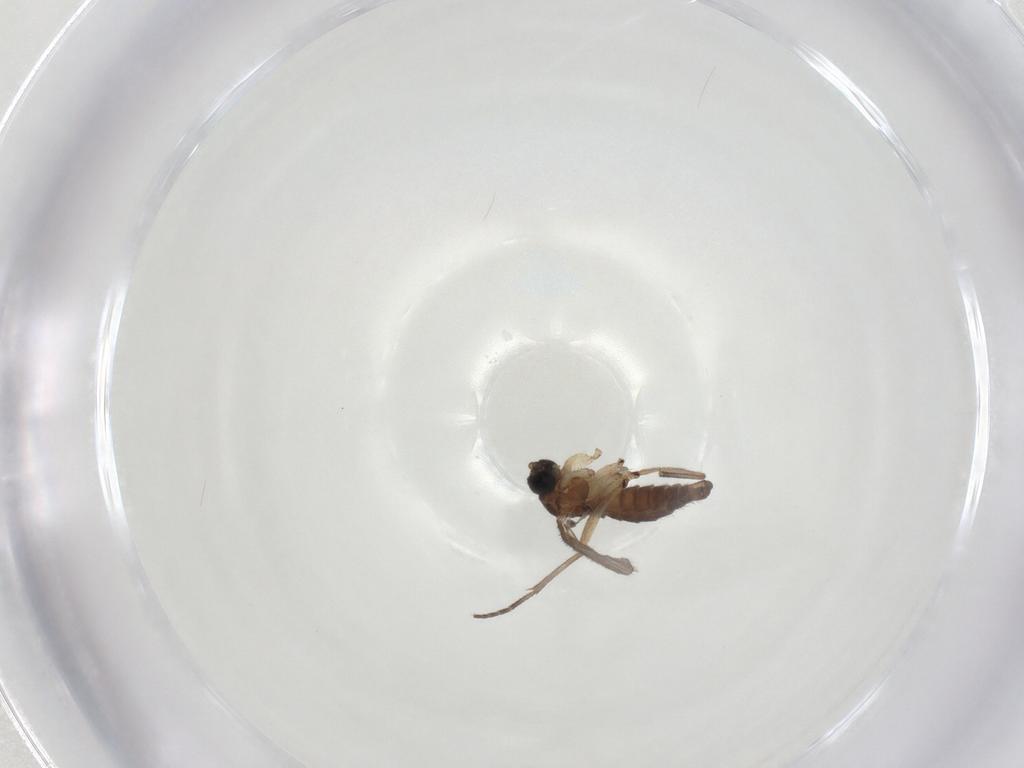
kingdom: Animalia
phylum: Arthropoda
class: Insecta
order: Diptera
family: Sciaridae
